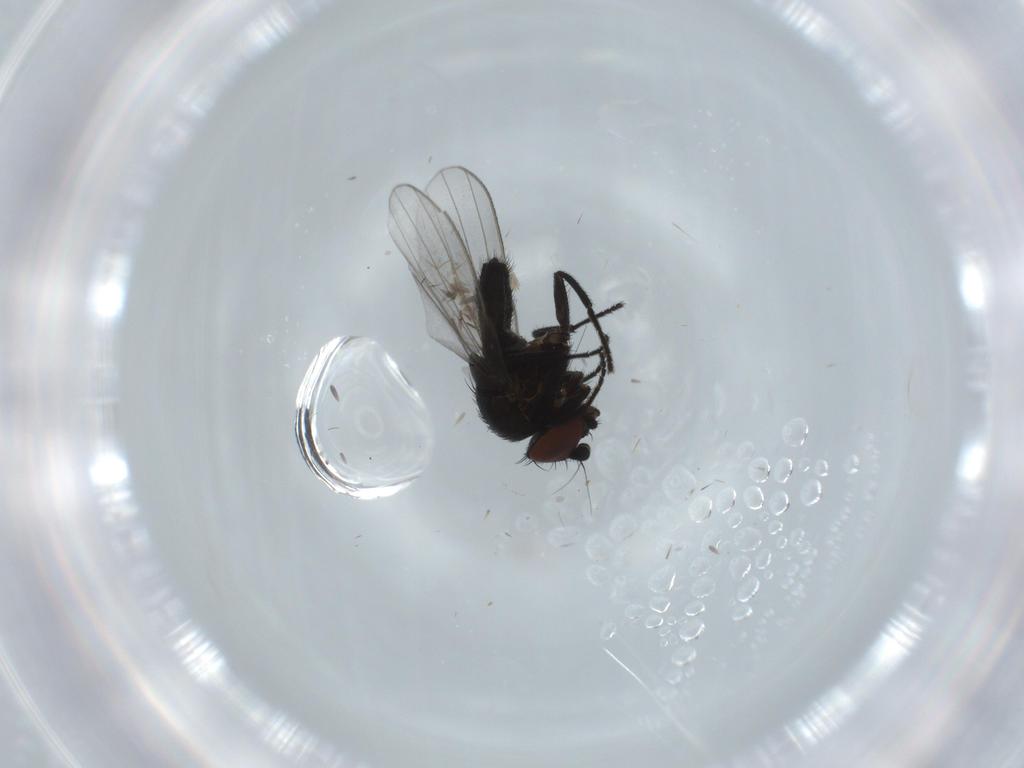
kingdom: Animalia
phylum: Arthropoda
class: Insecta
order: Diptera
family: Milichiidae
